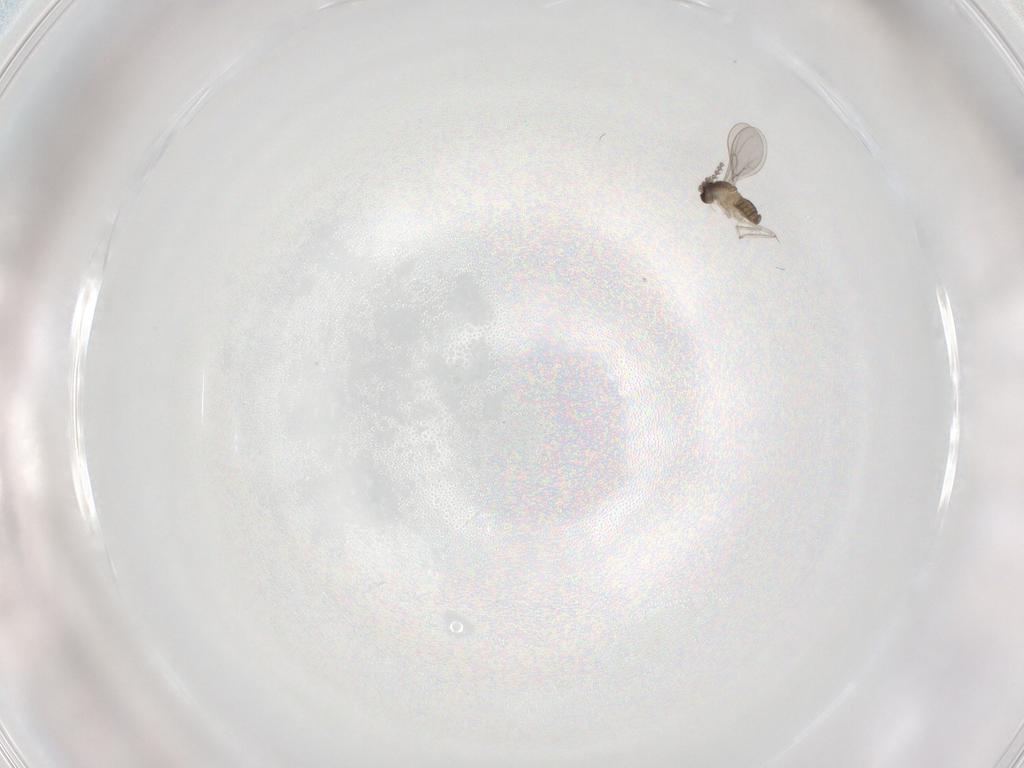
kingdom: Animalia
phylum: Arthropoda
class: Insecta
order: Diptera
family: Cecidomyiidae
